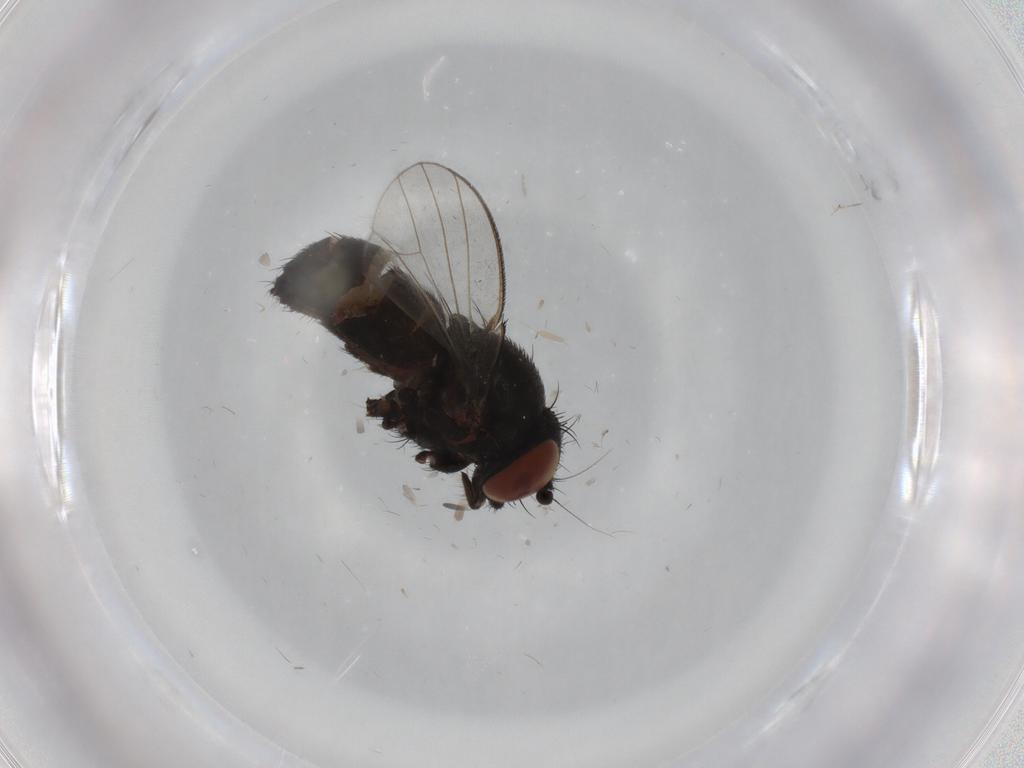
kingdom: Animalia
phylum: Arthropoda
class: Insecta
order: Diptera
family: Milichiidae
